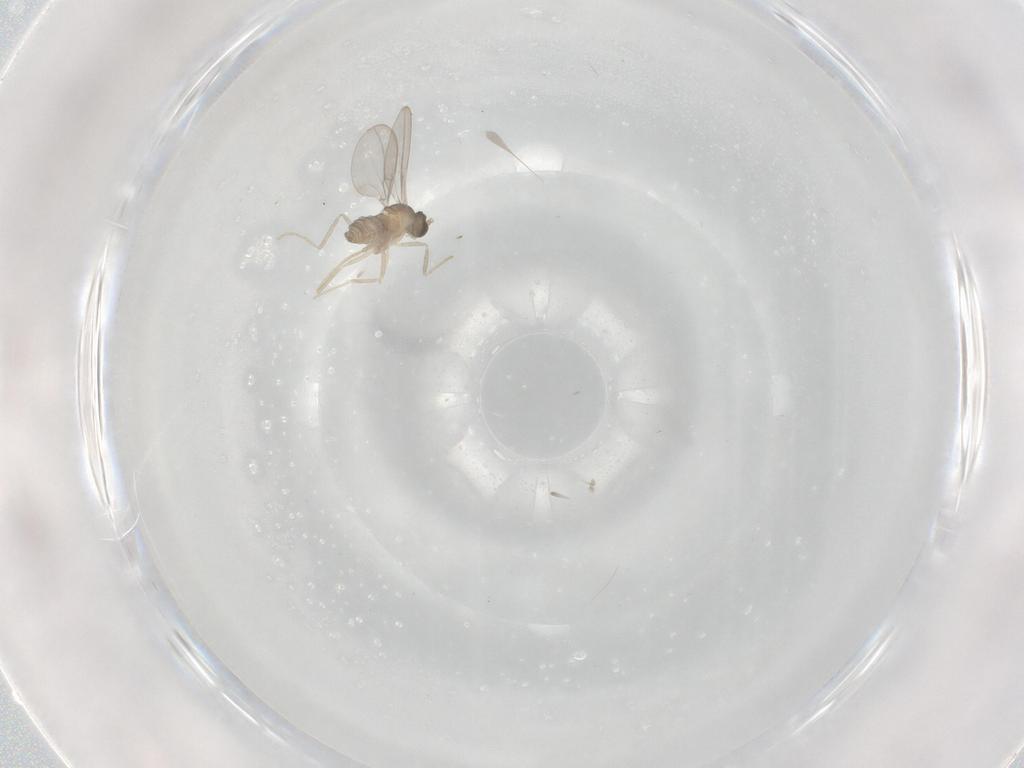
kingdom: Animalia
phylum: Arthropoda
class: Insecta
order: Diptera
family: Cecidomyiidae
